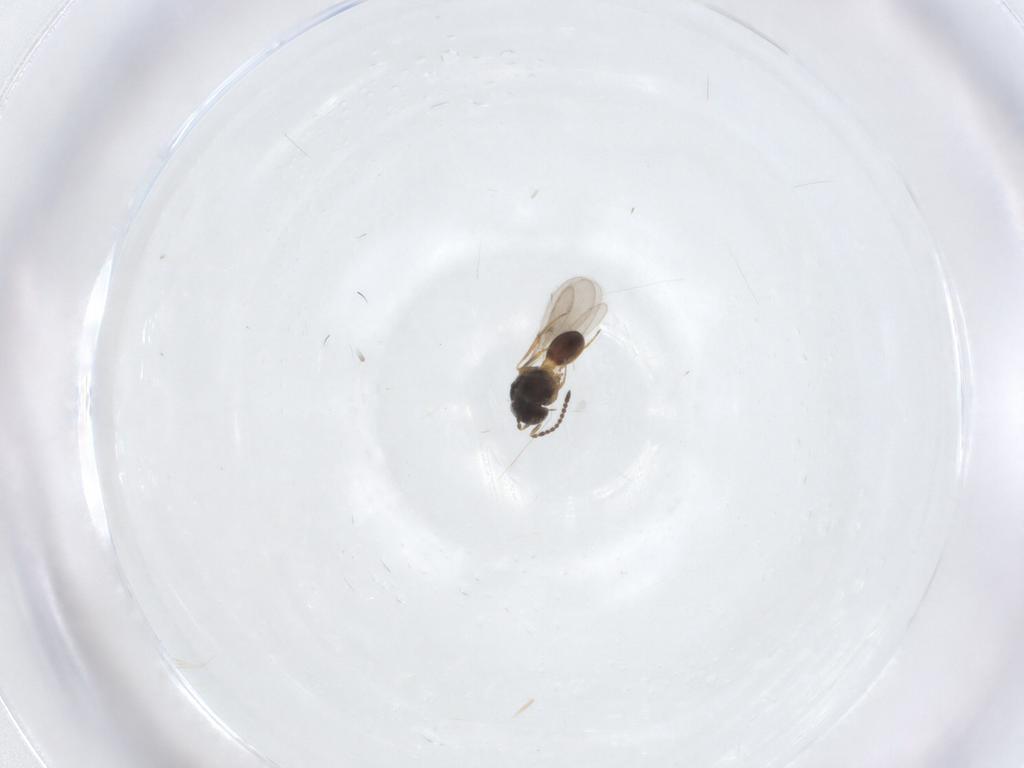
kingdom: Animalia
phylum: Arthropoda
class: Arachnida
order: Araneae
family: Pholcidae
